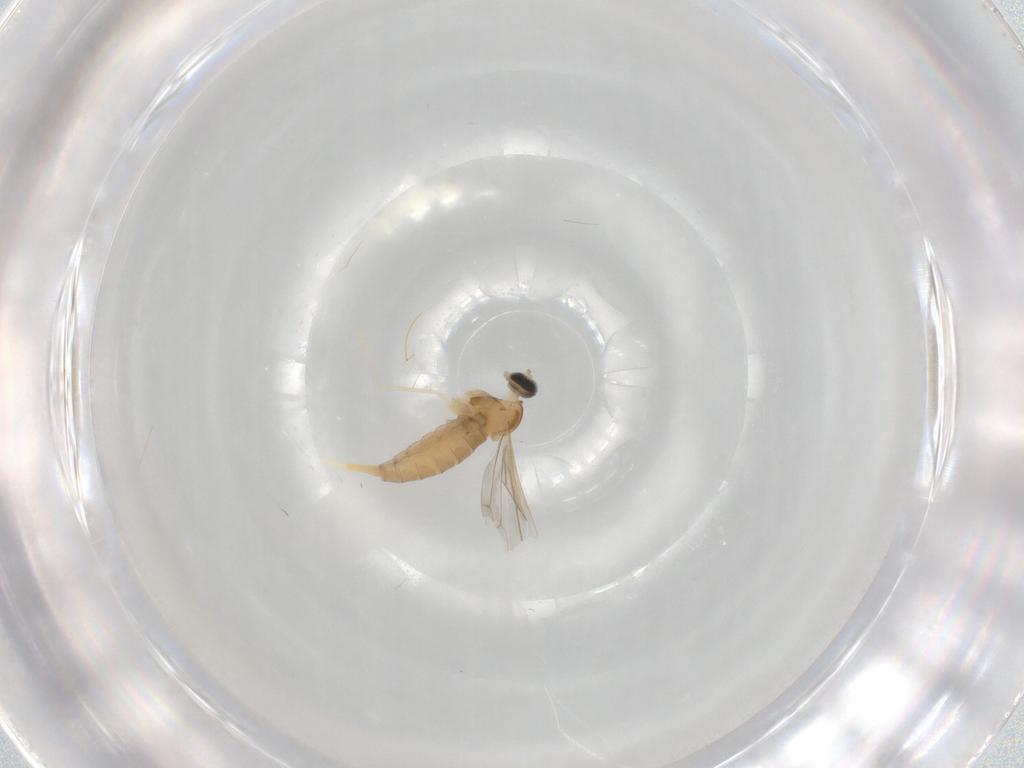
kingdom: Animalia
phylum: Arthropoda
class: Insecta
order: Diptera
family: Cecidomyiidae
